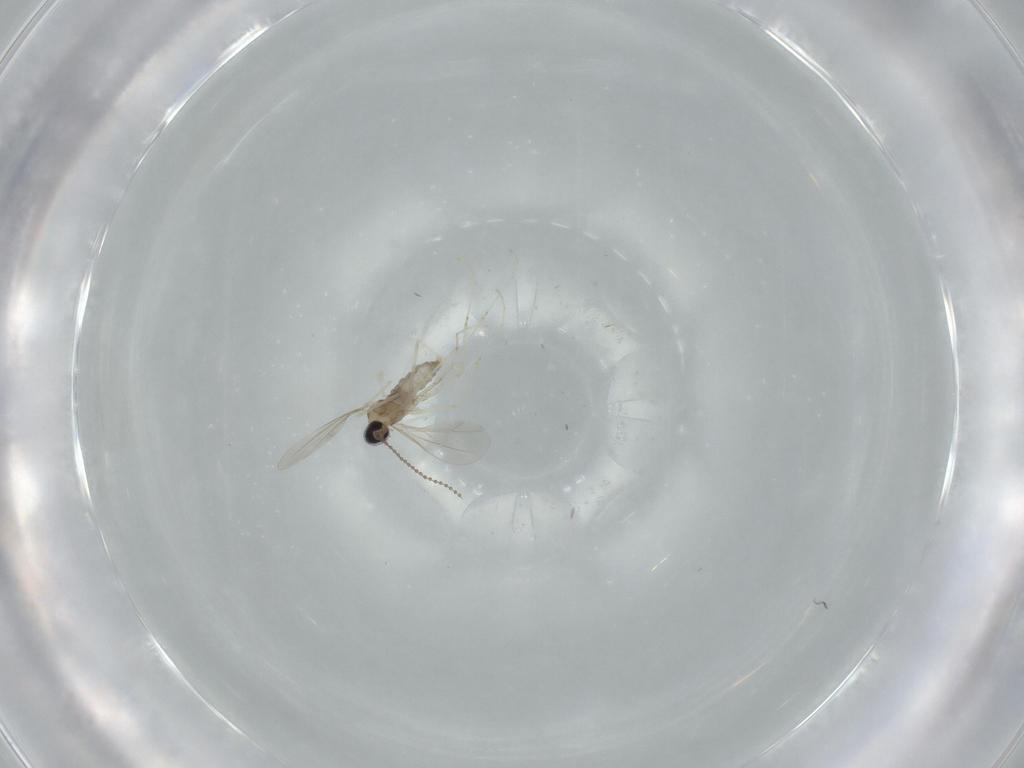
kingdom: Animalia
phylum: Arthropoda
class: Insecta
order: Diptera
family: Cecidomyiidae
